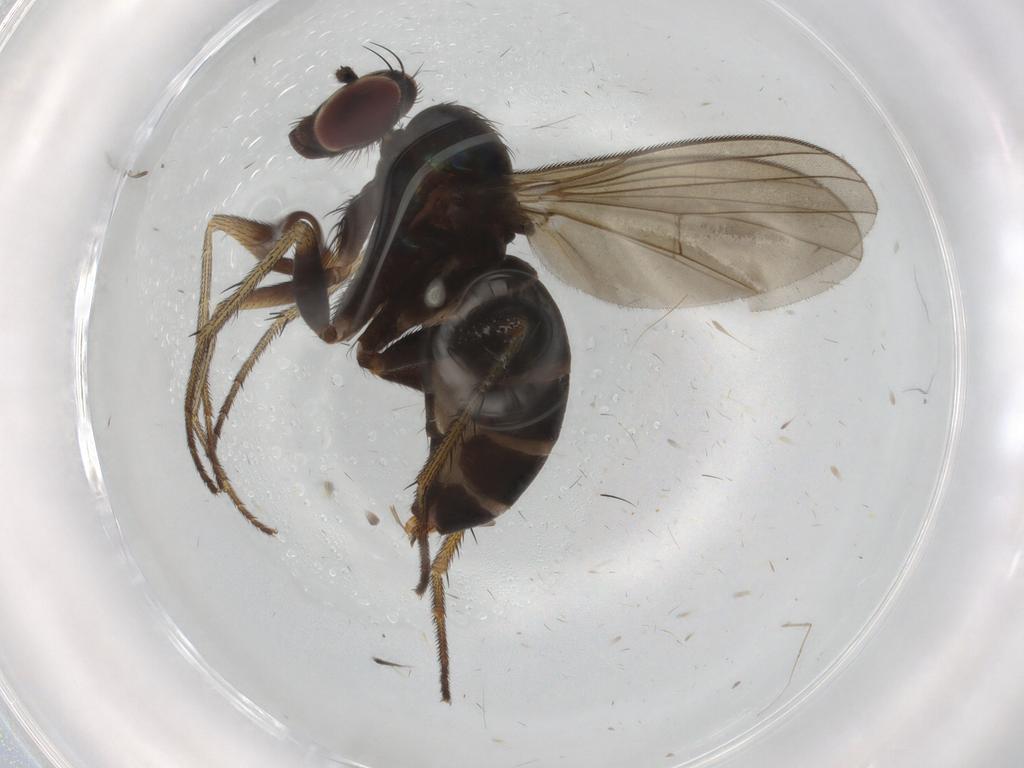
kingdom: Animalia
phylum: Arthropoda
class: Insecta
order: Diptera
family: Dolichopodidae
